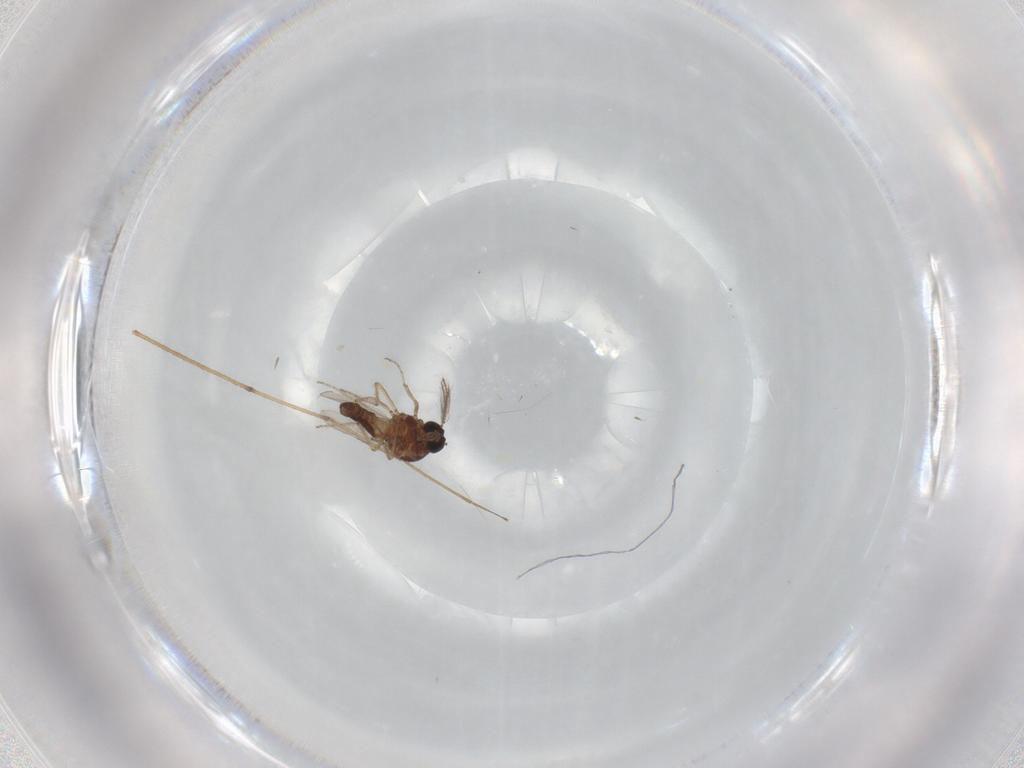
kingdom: Animalia
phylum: Arthropoda
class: Insecta
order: Diptera
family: Ceratopogonidae
